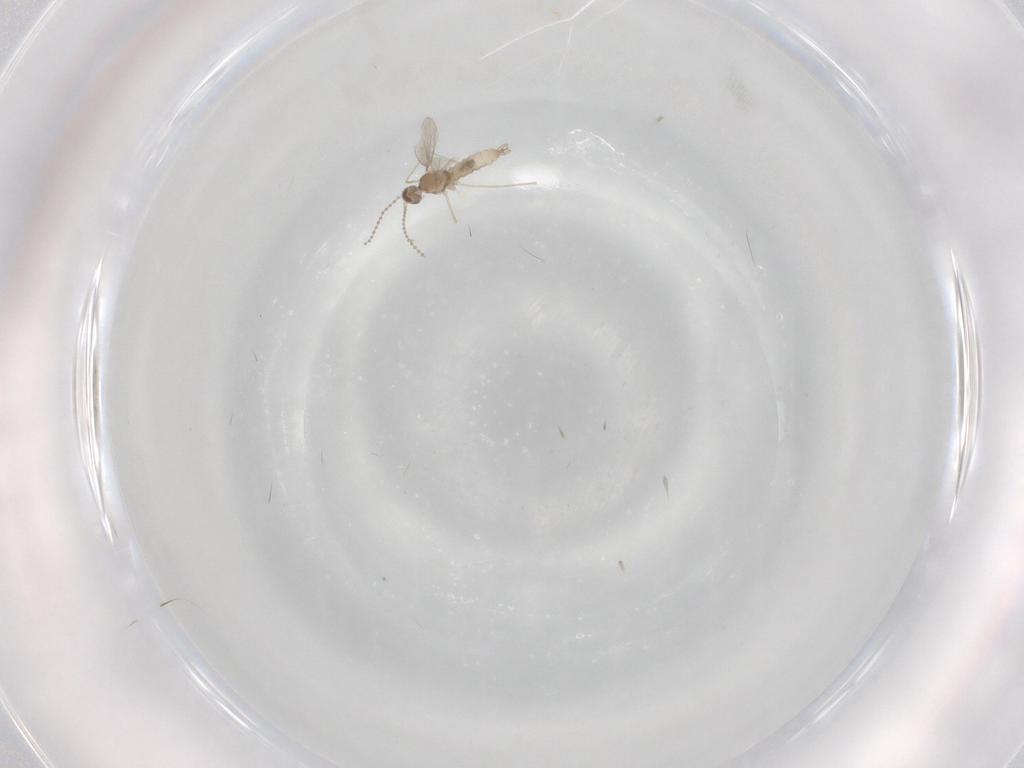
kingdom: Animalia
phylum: Arthropoda
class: Insecta
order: Diptera
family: Cecidomyiidae
